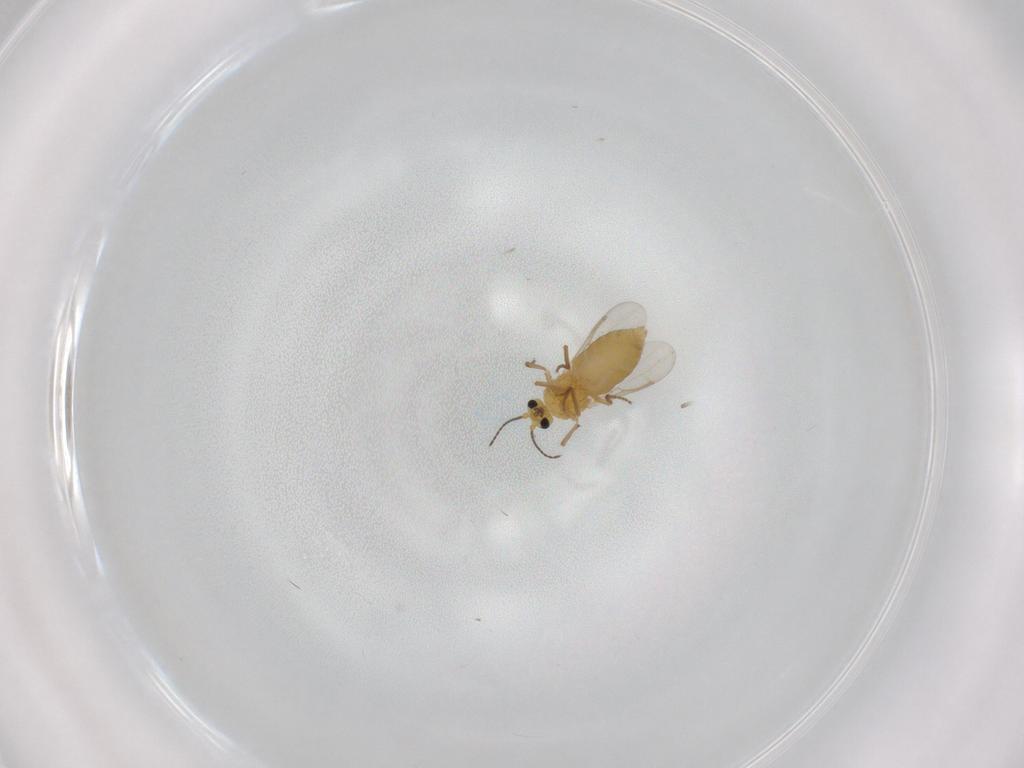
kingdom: Animalia
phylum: Arthropoda
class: Insecta
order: Diptera
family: Ceratopogonidae
